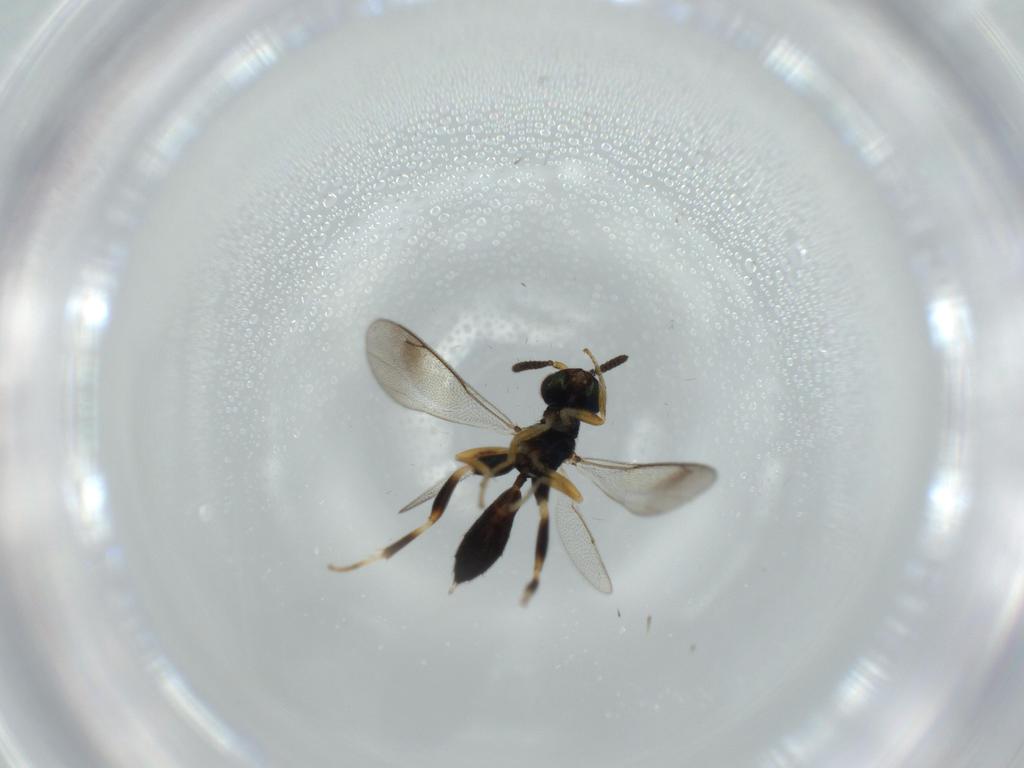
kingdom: Animalia
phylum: Arthropoda
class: Insecta
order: Hymenoptera
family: Cleonyminae
